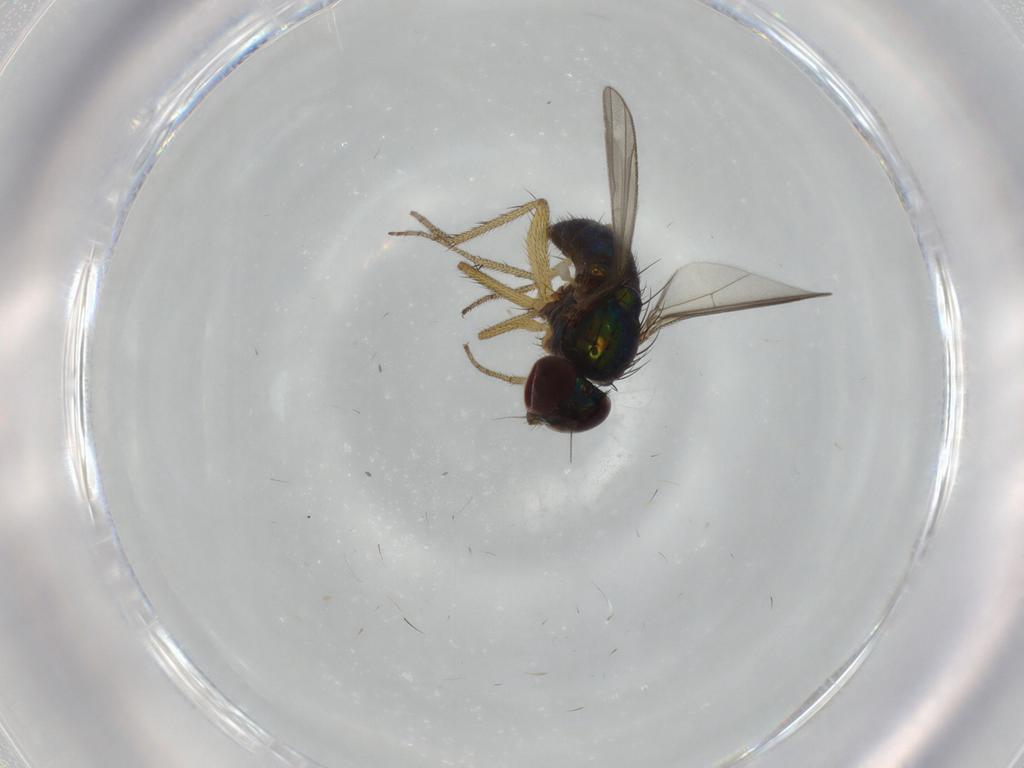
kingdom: Animalia
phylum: Arthropoda
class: Insecta
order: Diptera
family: Dolichopodidae
